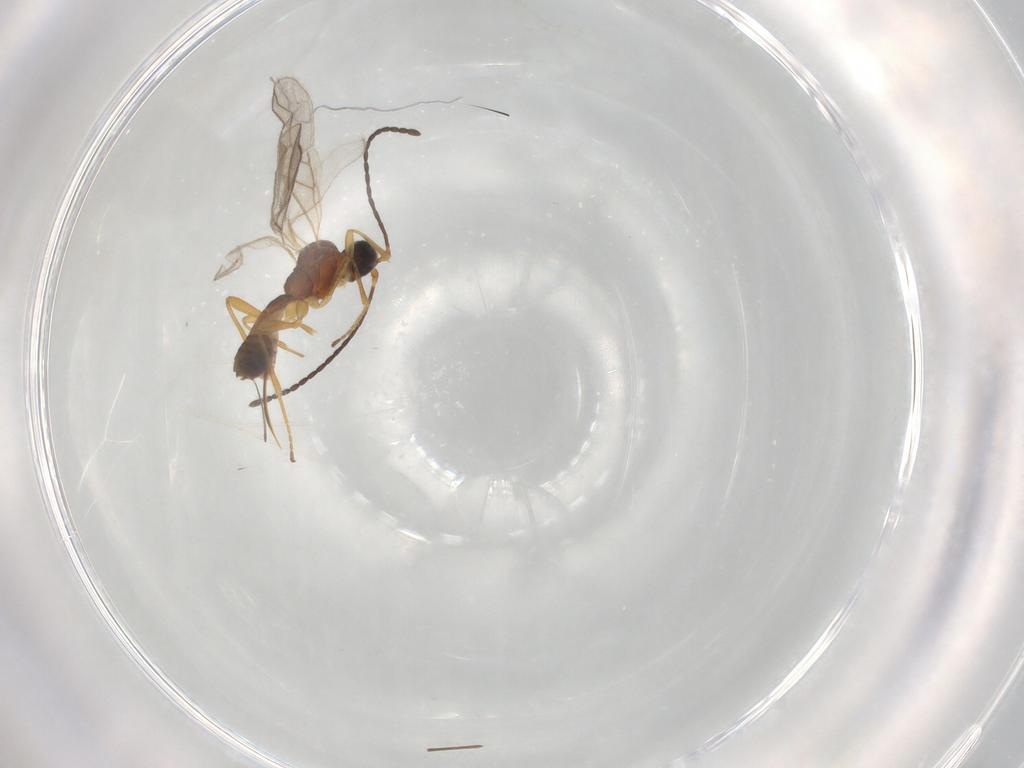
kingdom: Animalia
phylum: Arthropoda
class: Insecta
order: Hymenoptera
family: Braconidae
